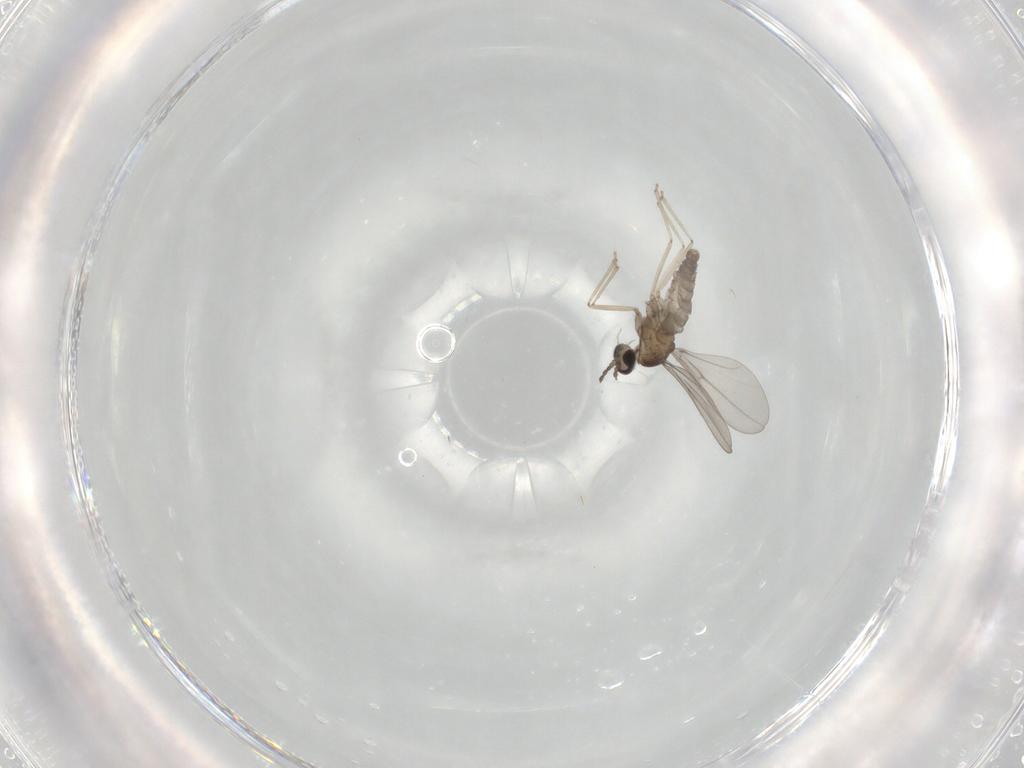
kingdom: Animalia
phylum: Arthropoda
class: Insecta
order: Diptera
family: Cecidomyiidae
